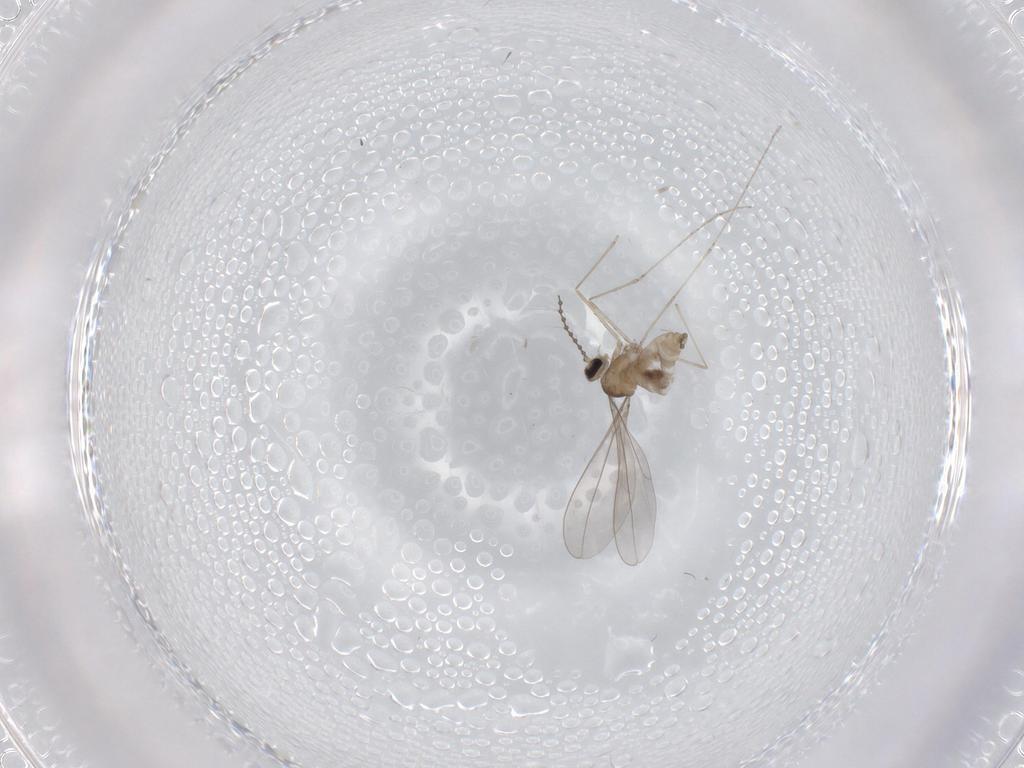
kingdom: Animalia
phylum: Arthropoda
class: Insecta
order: Diptera
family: Cecidomyiidae
